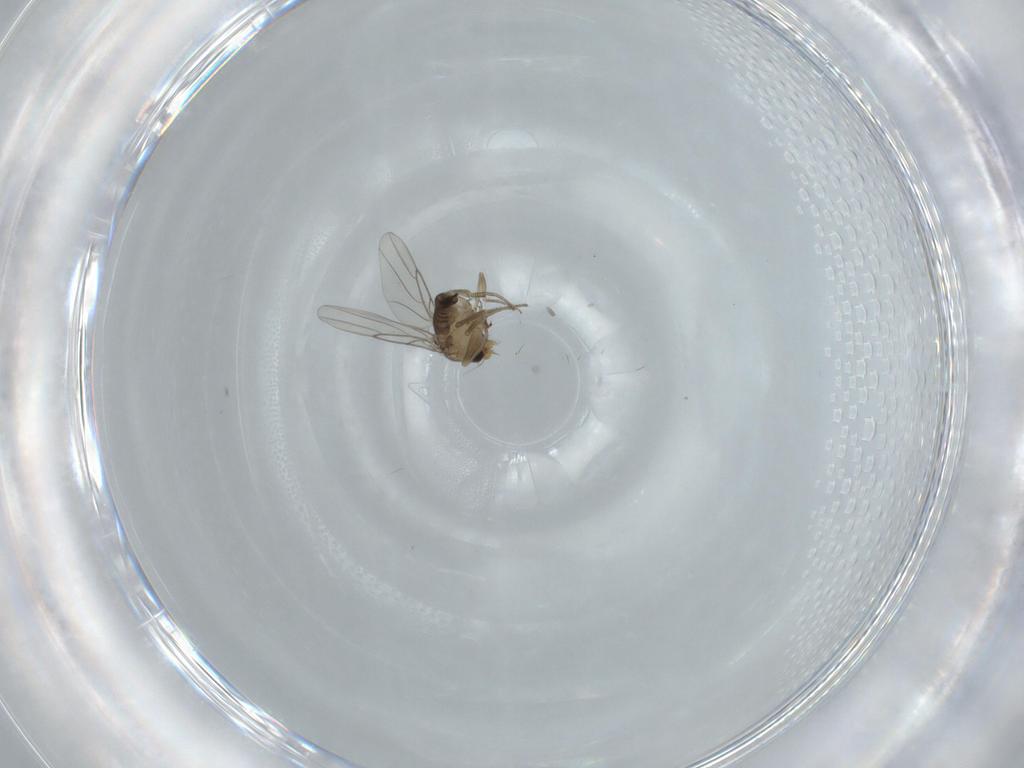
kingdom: Animalia
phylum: Arthropoda
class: Insecta
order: Diptera
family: Phoridae
